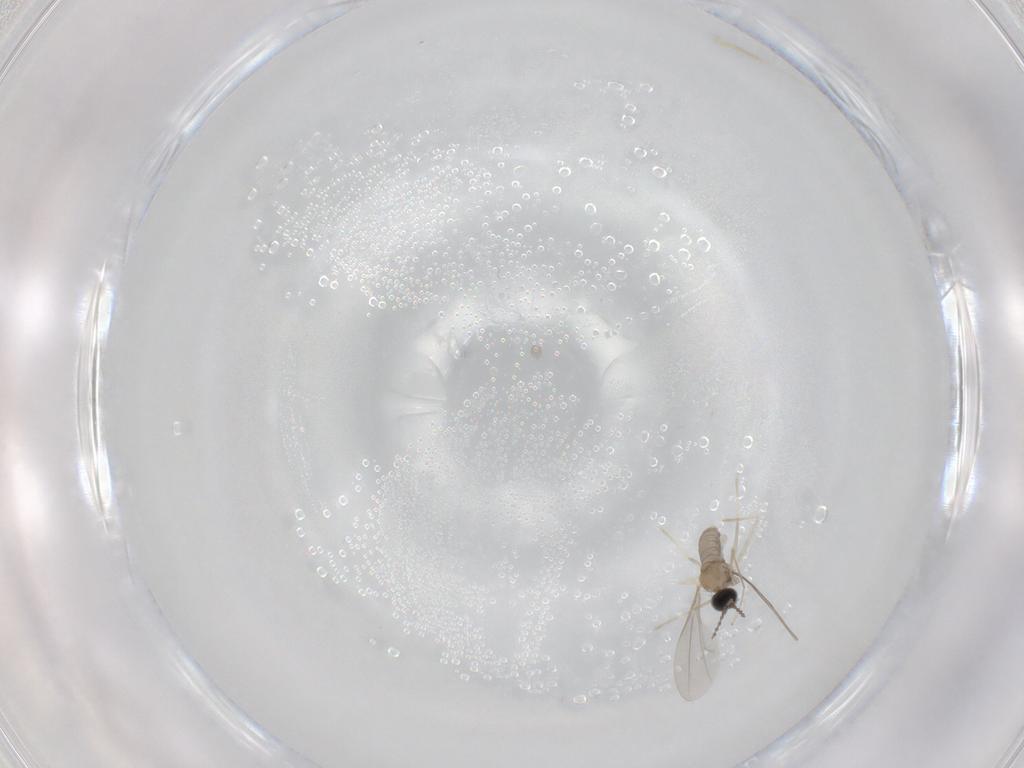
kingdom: Animalia
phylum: Arthropoda
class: Insecta
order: Diptera
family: Cecidomyiidae
